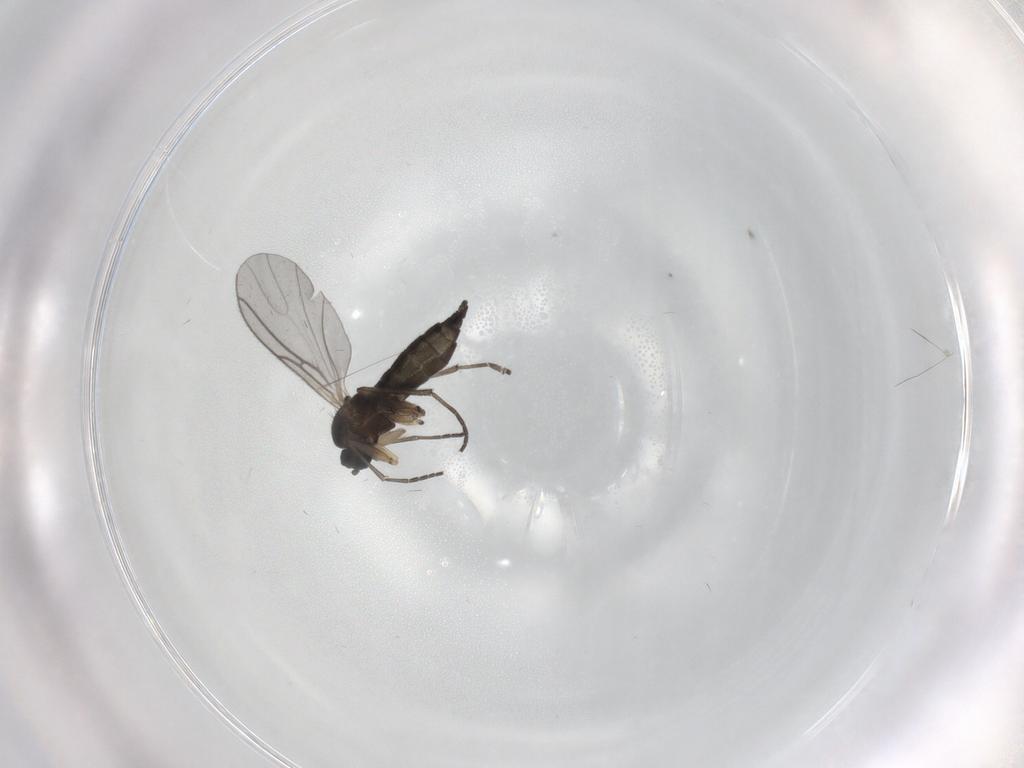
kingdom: Animalia
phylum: Arthropoda
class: Insecta
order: Diptera
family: Sciaridae
